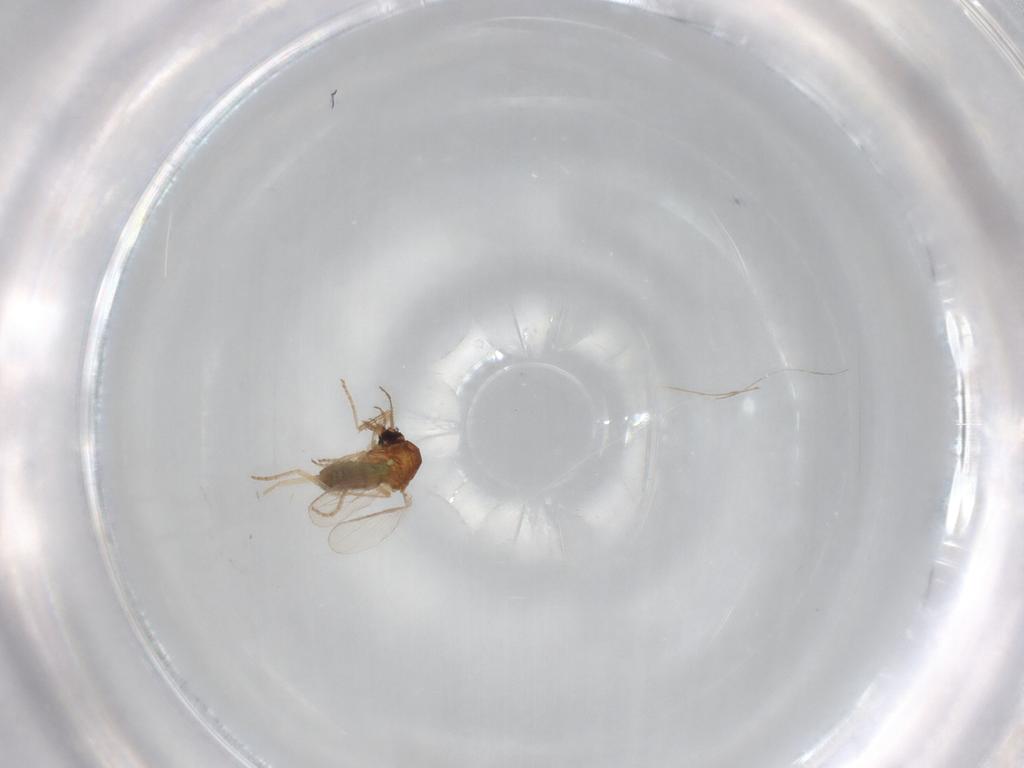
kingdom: Animalia
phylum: Arthropoda
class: Insecta
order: Diptera
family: Ceratopogonidae
